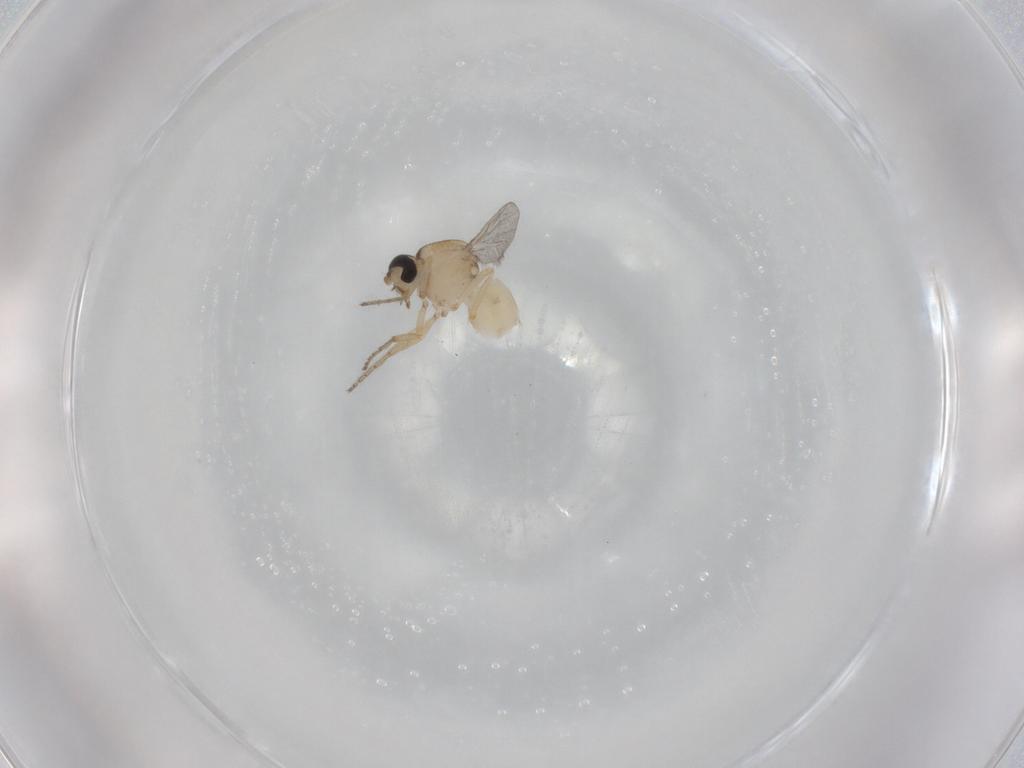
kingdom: Animalia
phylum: Arthropoda
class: Insecta
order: Diptera
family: Ceratopogonidae
